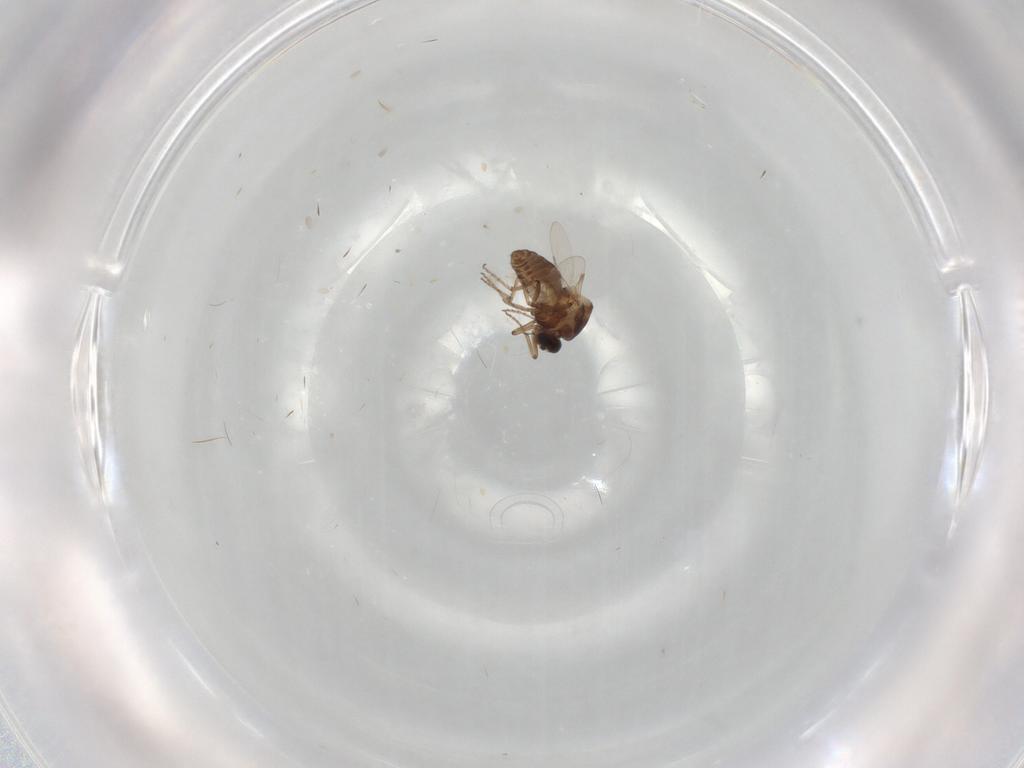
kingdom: Animalia
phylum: Arthropoda
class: Insecta
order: Diptera
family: Ceratopogonidae
